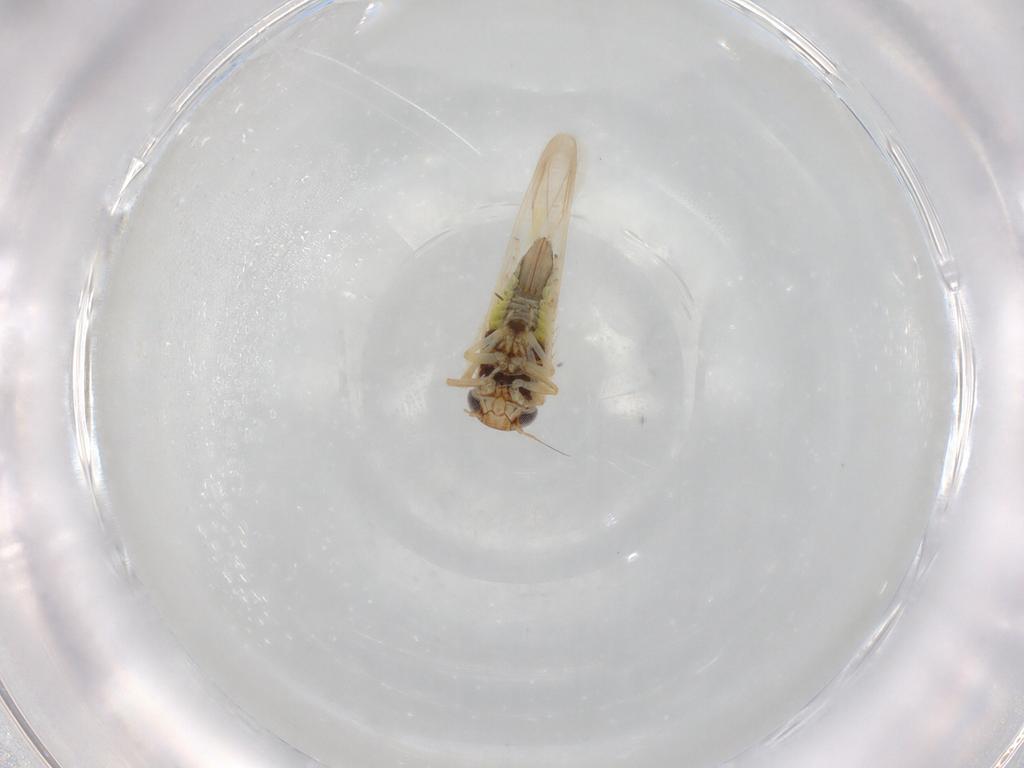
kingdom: Animalia
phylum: Arthropoda
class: Insecta
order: Hemiptera
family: Cicadellidae
